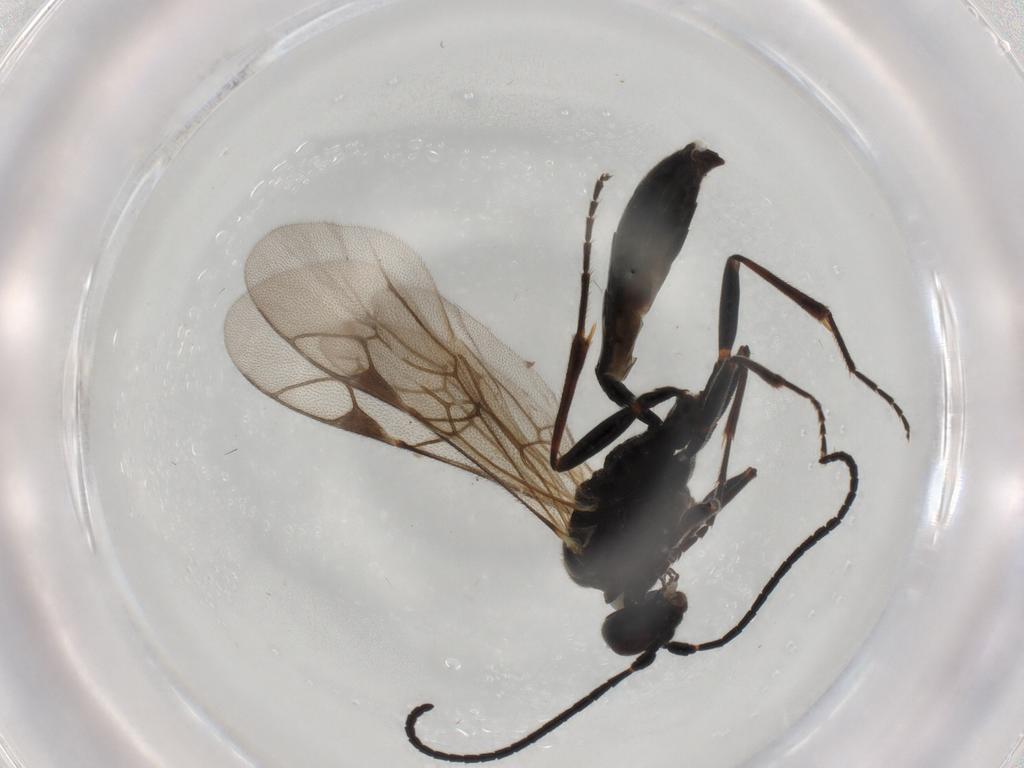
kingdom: Animalia
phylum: Arthropoda
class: Insecta
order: Hymenoptera
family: Ichneumonidae
